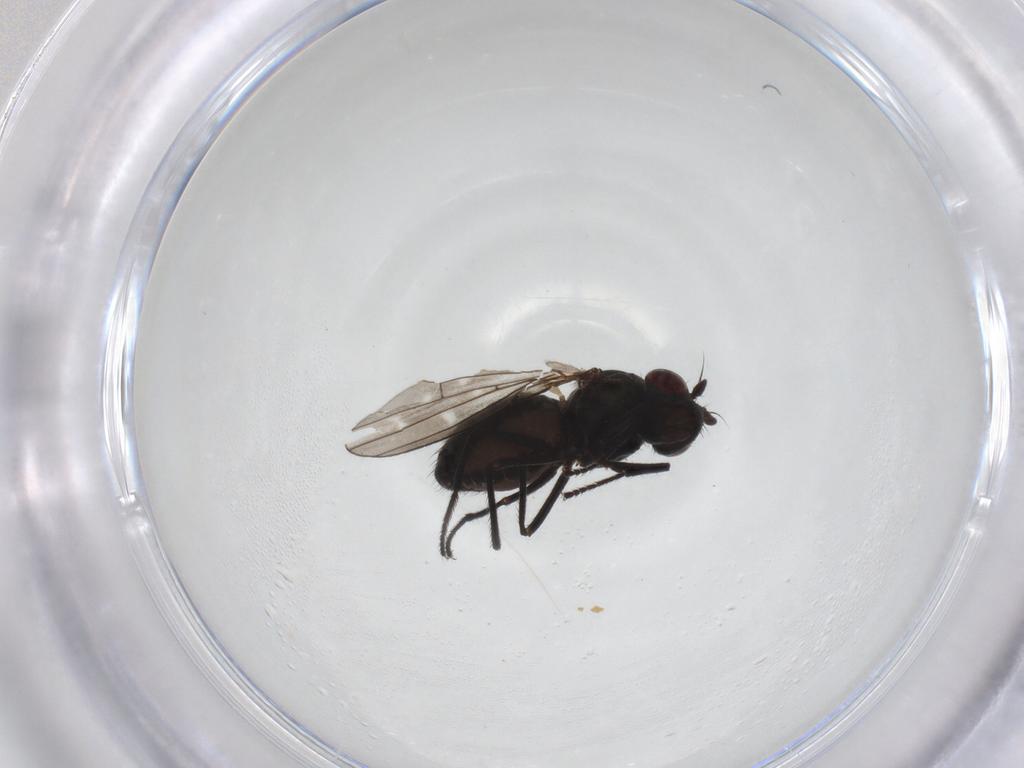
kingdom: Animalia
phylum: Arthropoda
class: Insecta
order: Diptera
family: Ephydridae
